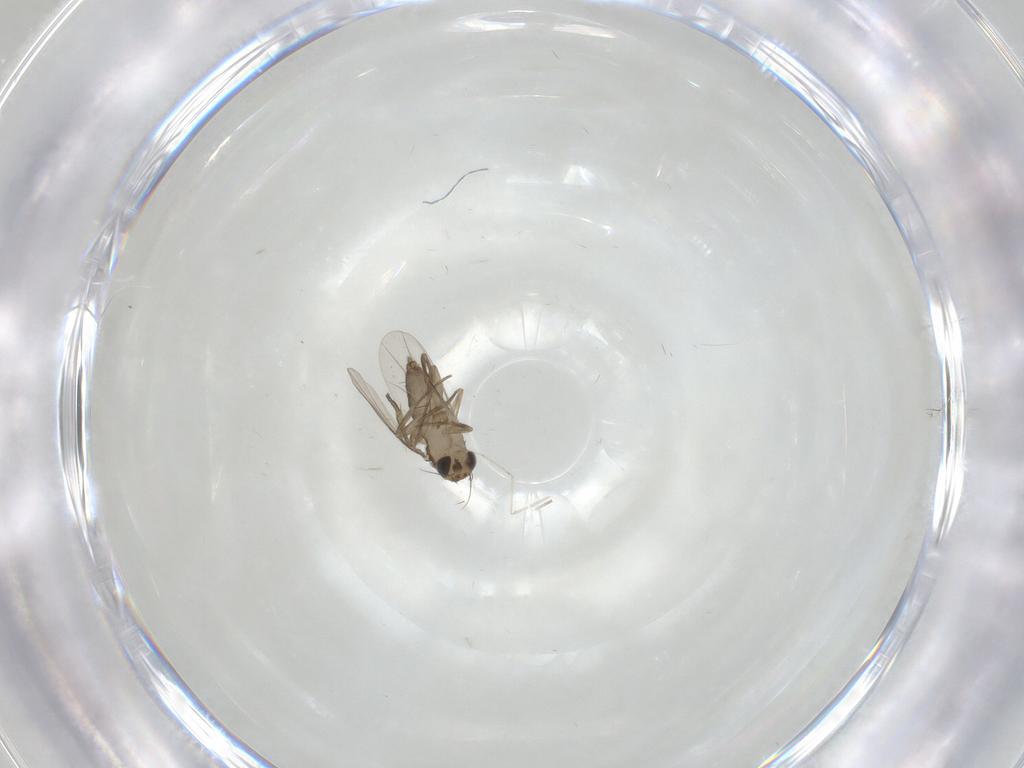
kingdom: Animalia
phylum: Arthropoda
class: Insecta
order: Diptera
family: Phoridae
